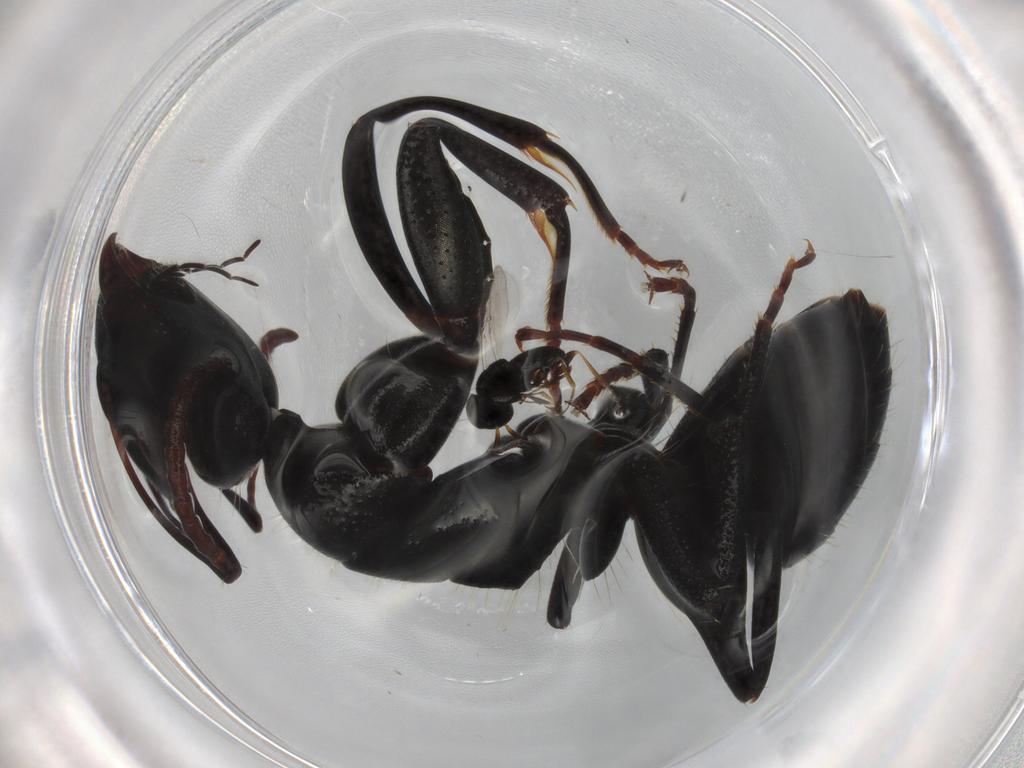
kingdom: Animalia
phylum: Arthropoda
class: Insecta
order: Hymenoptera
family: Formicidae
